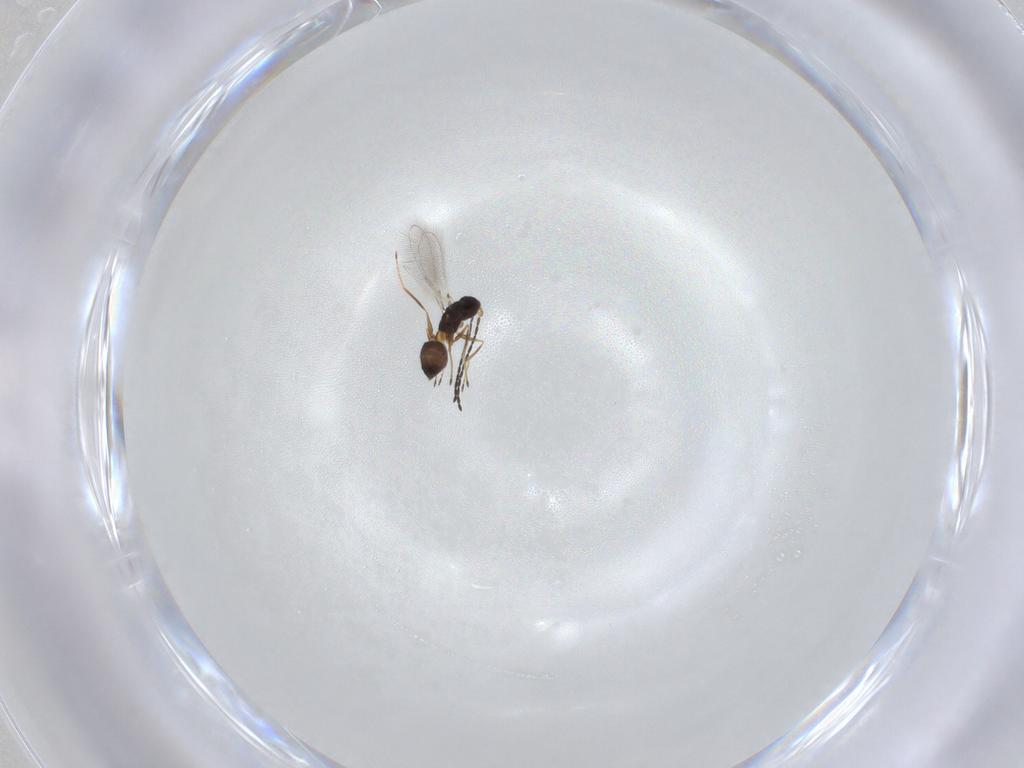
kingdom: Animalia
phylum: Arthropoda
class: Insecta
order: Hymenoptera
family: Mymaridae
